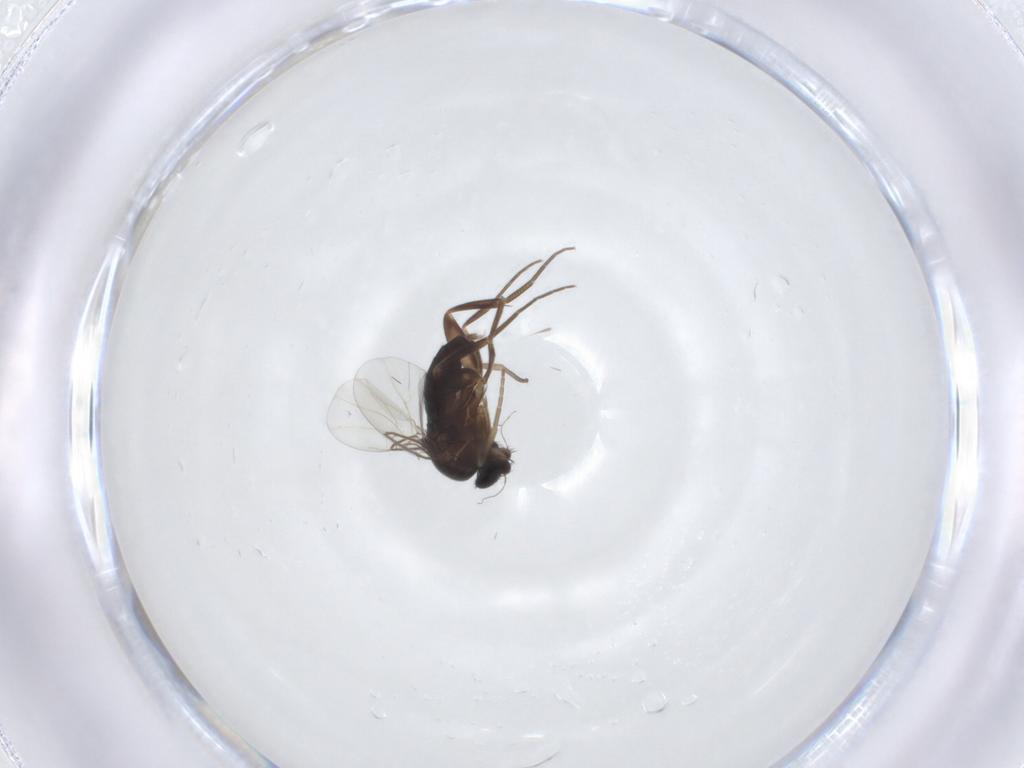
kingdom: Animalia
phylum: Arthropoda
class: Insecta
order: Diptera
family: Phoridae
